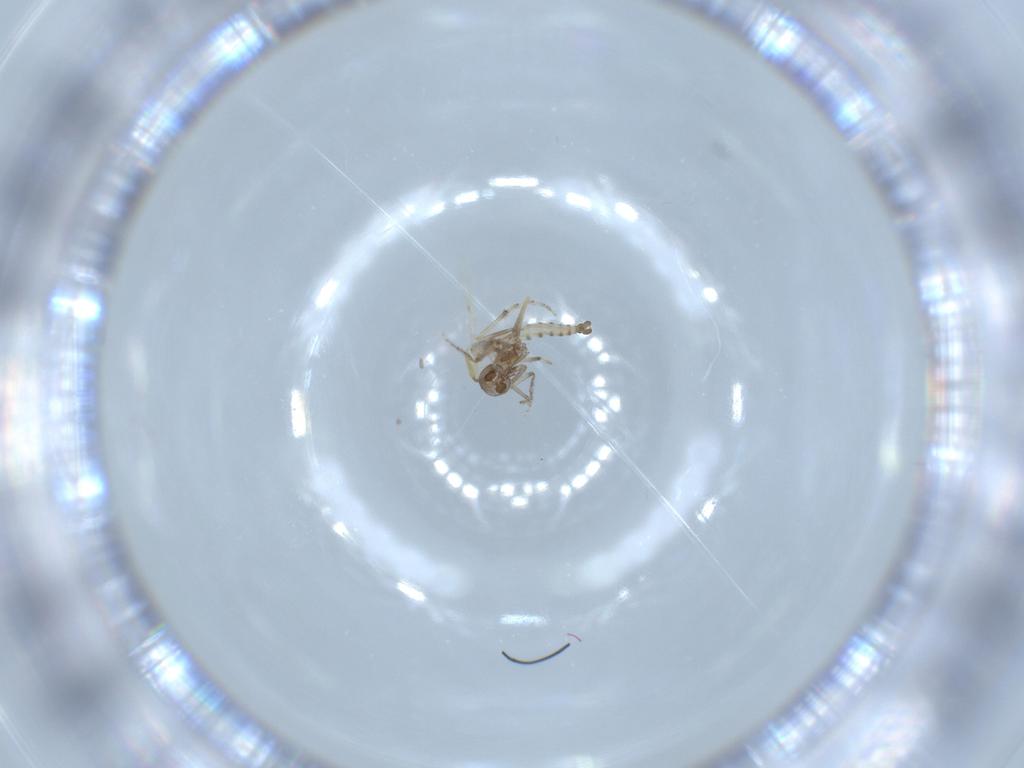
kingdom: Animalia
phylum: Arthropoda
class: Insecta
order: Diptera
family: Ceratopogonidae
